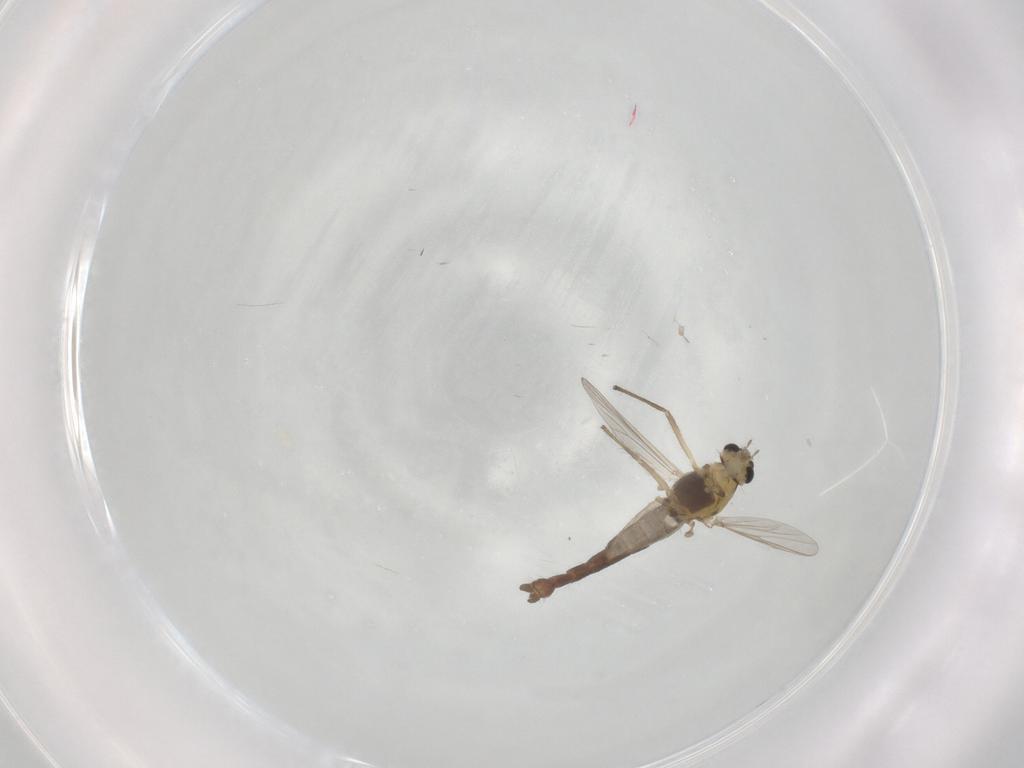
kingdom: Animalia
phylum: Arthropoda
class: Insecta
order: Diptera
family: Chironomidae
